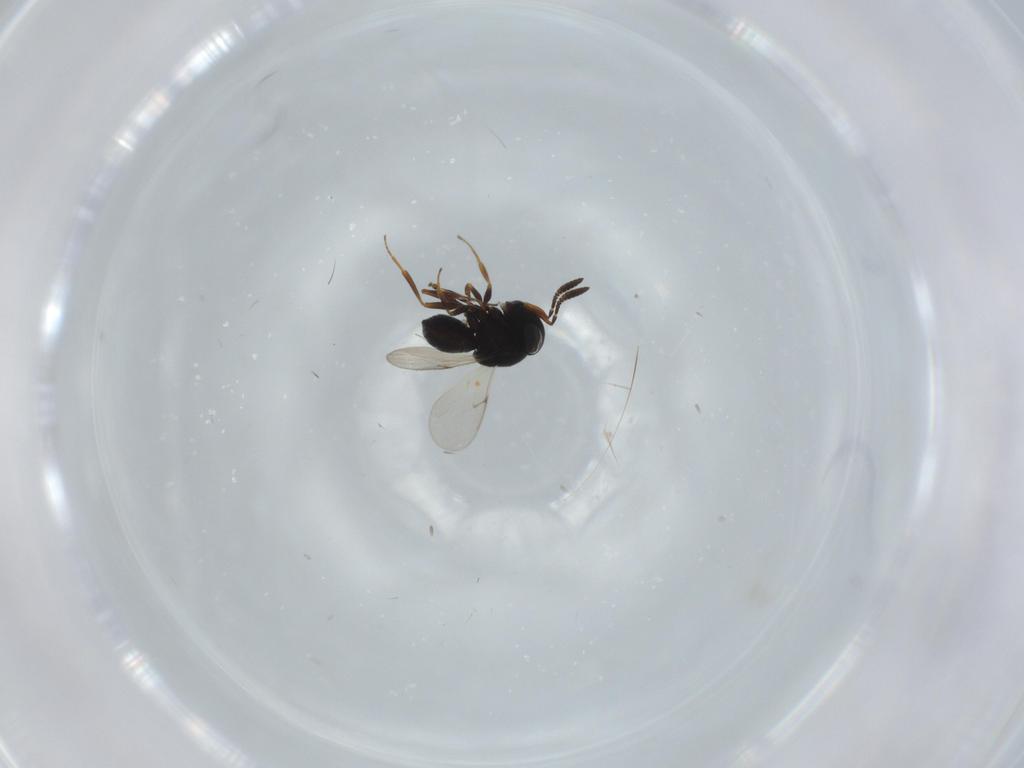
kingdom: Animalia
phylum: Arthropoda
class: Insecta
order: Hymenoptera
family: Scelionidae
